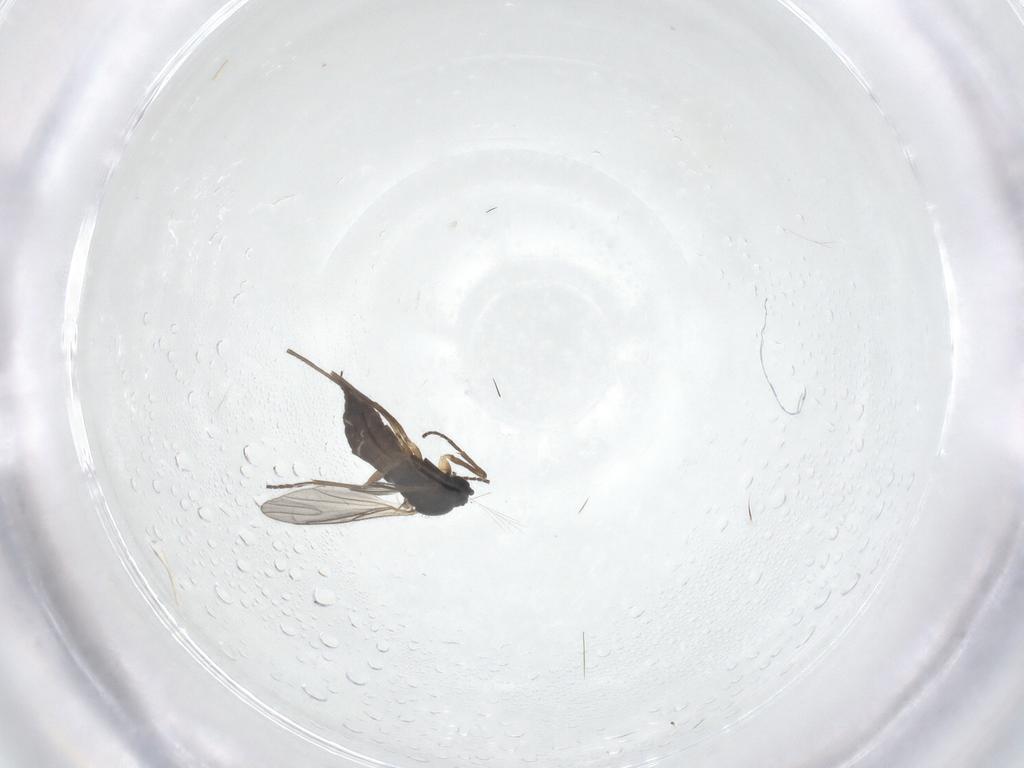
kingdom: Animalia
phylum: Arthropoda
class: Insecta
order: Diptera
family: Sciaridae
